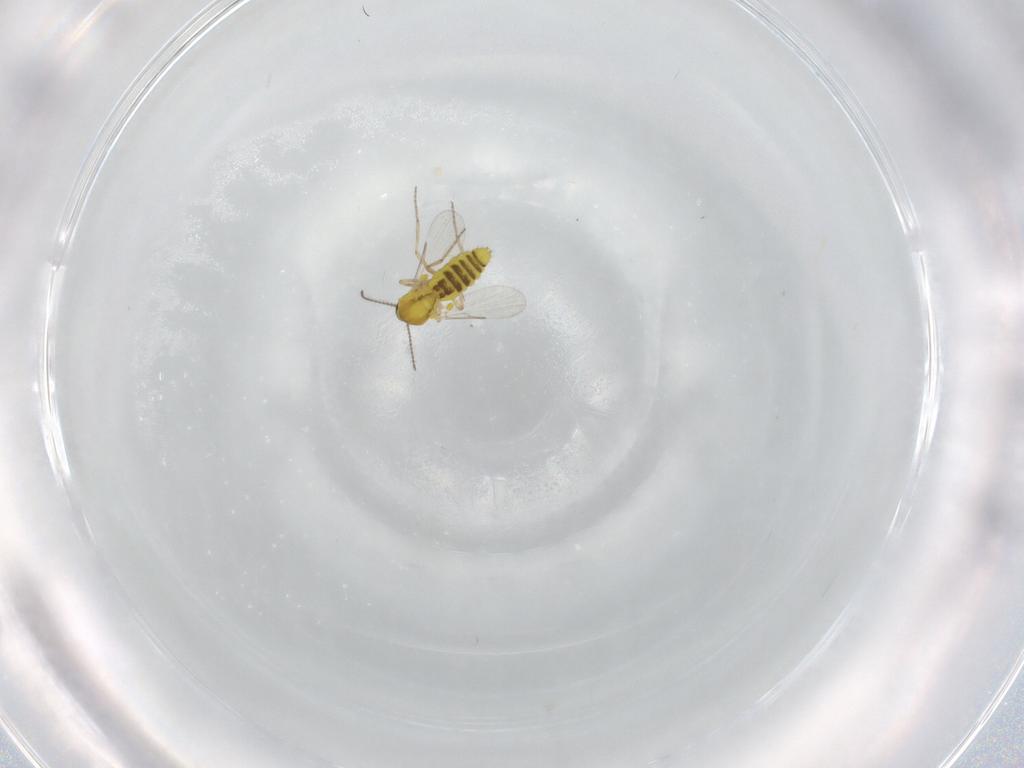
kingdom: Animalia
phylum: Arthropoda
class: Insecta
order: Diptera
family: Ceratopogonidae
